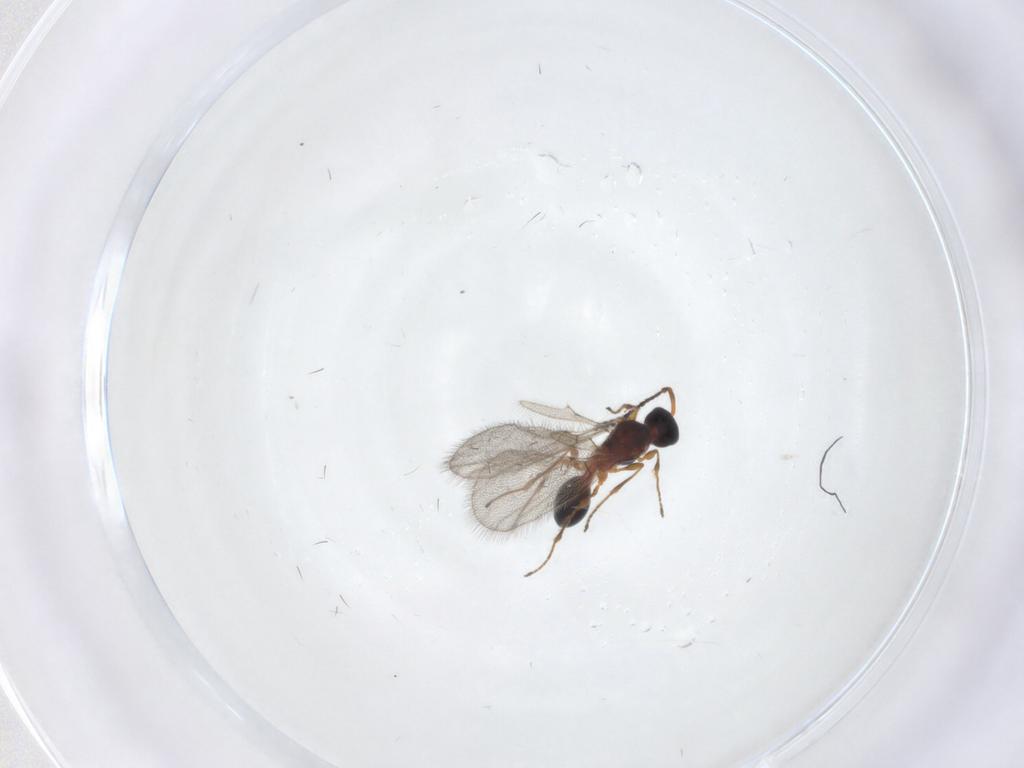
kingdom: Animalia
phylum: Arthropoda
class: Insecta
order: Hymenoptera
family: Diapriidae
